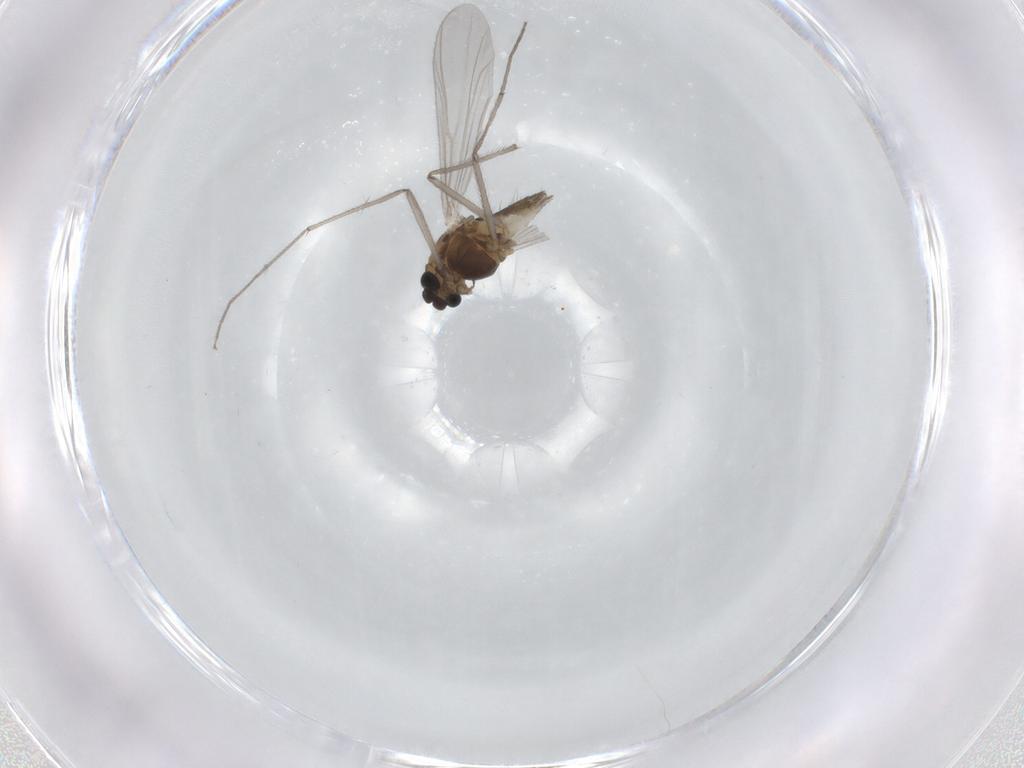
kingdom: Animalia
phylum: Arthropoda
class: Insecta
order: Diptera
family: Chironomidae
